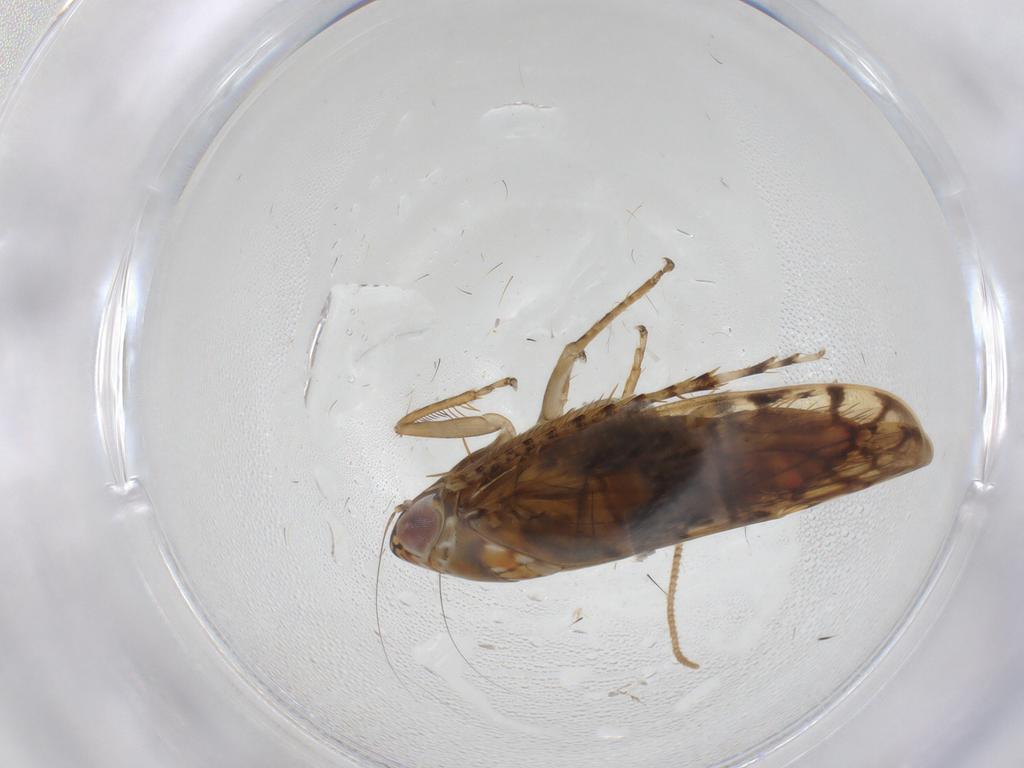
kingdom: Animalia
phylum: Arthropoda
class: Insecta
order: Hemiptera
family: Cicadellidae
